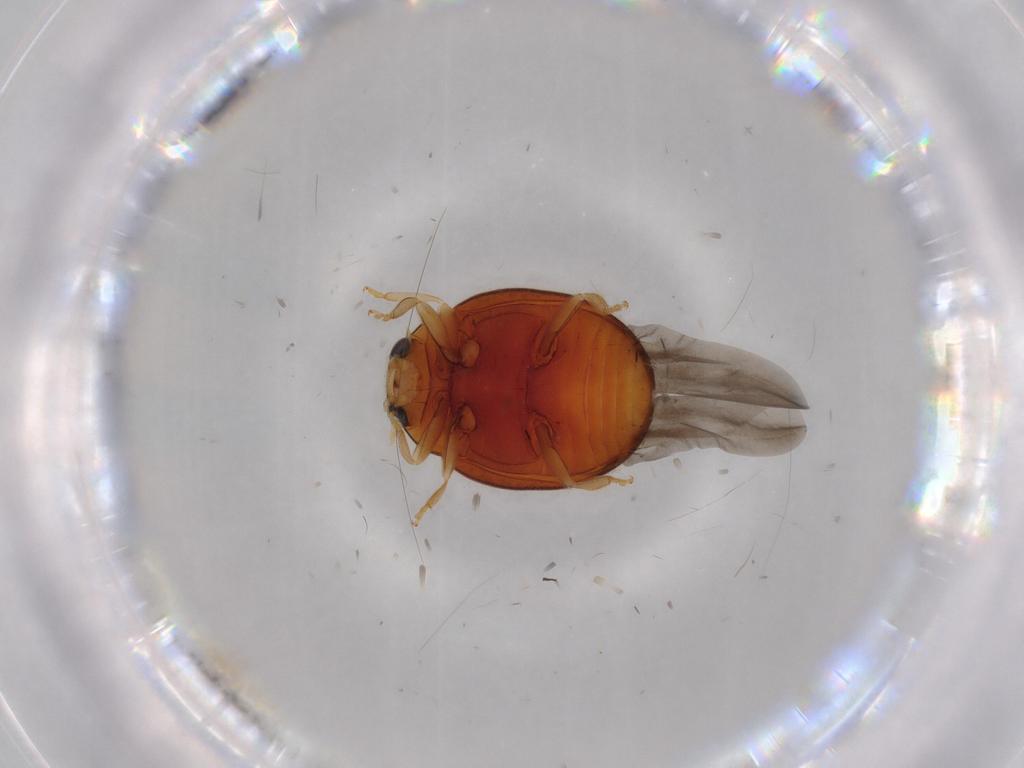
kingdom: Animalia
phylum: Arthropoda
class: Insecta
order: Coleoptera
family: Coccinellidae
